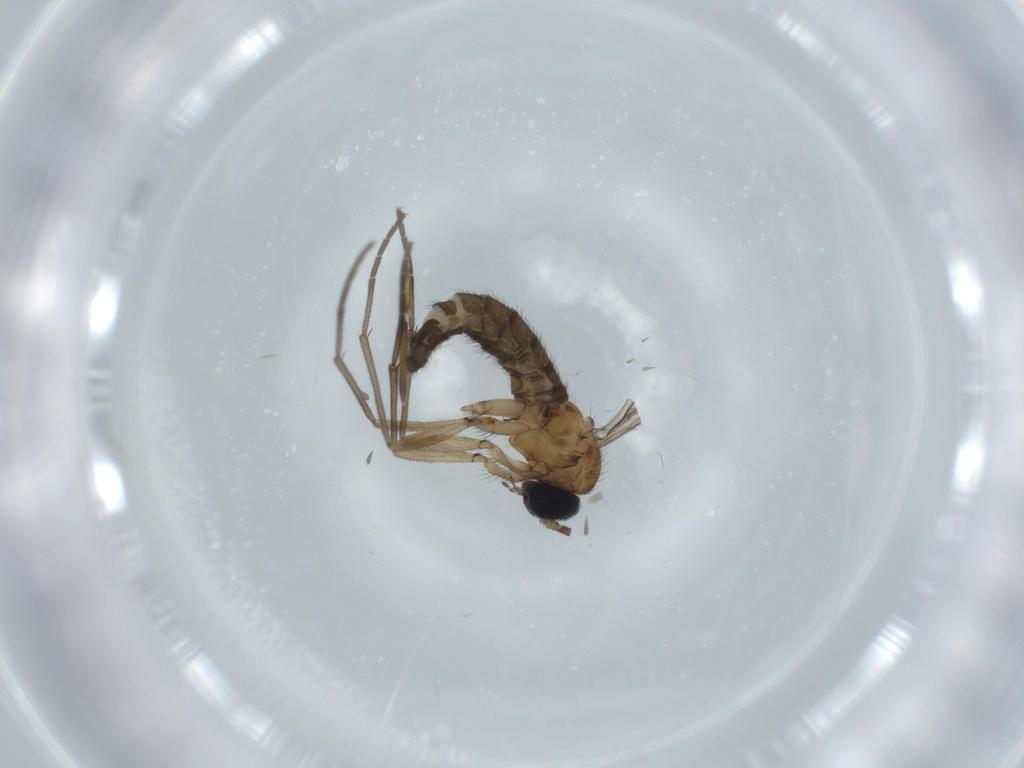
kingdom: Animalia
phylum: Arthropoda
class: Insecta
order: Diptera
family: Sciaridae
